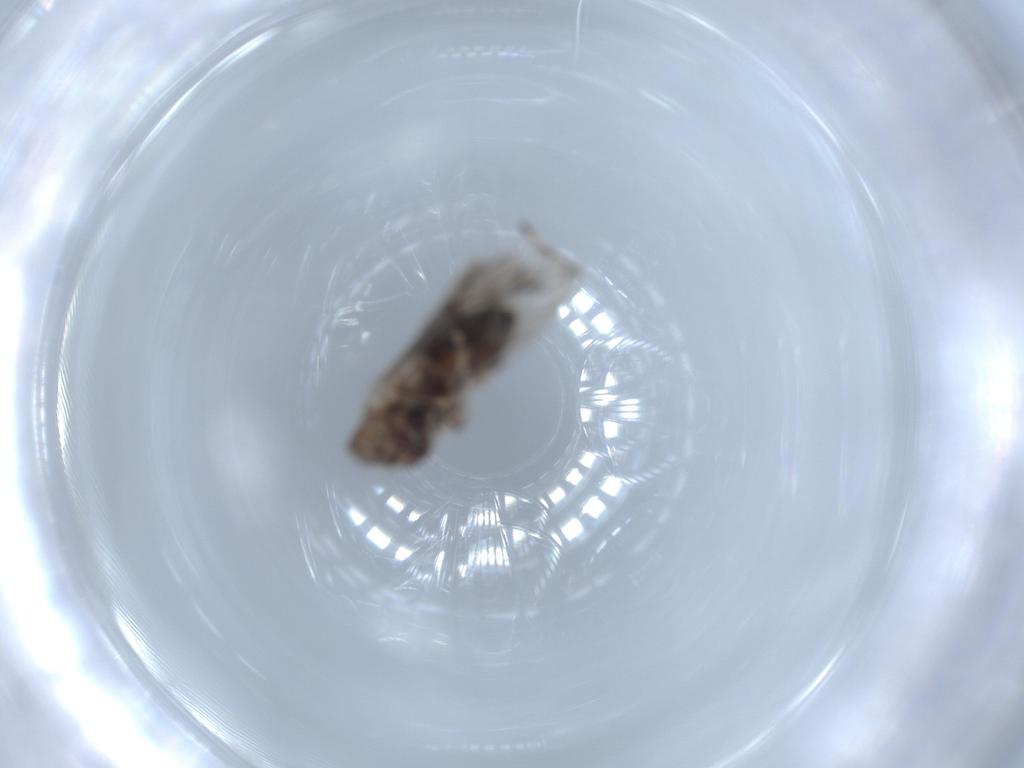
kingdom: Animalia
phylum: Arthropoda
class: Insecta
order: Psocodea
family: Lepidopsocidae
